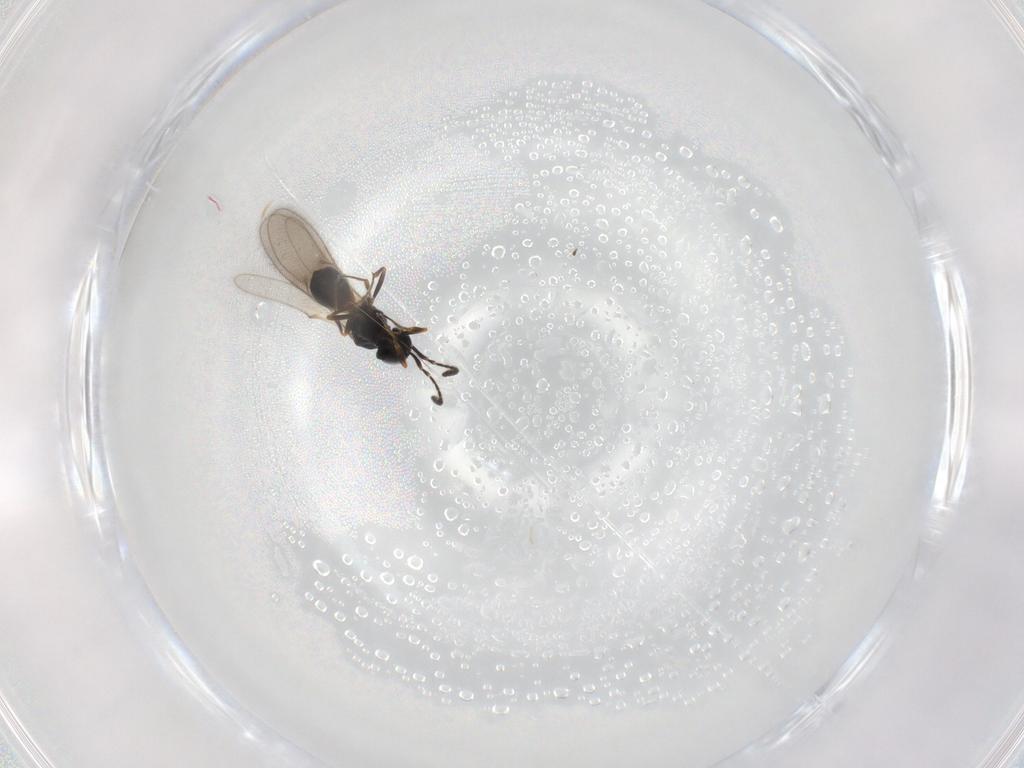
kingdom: Animalia
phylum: Arthropoda
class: Insecta
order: Hymenoptera
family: Scelionidae
